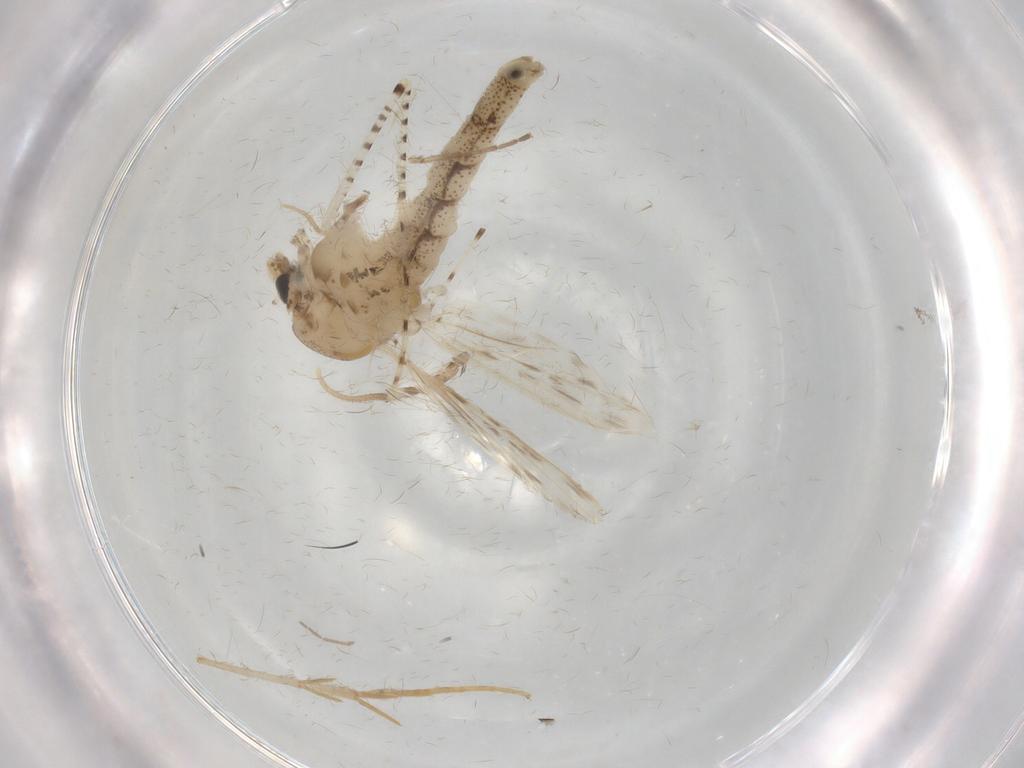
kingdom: Animalia
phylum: Arthropoda
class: Insecta
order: Diptera
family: Chaoboridae
